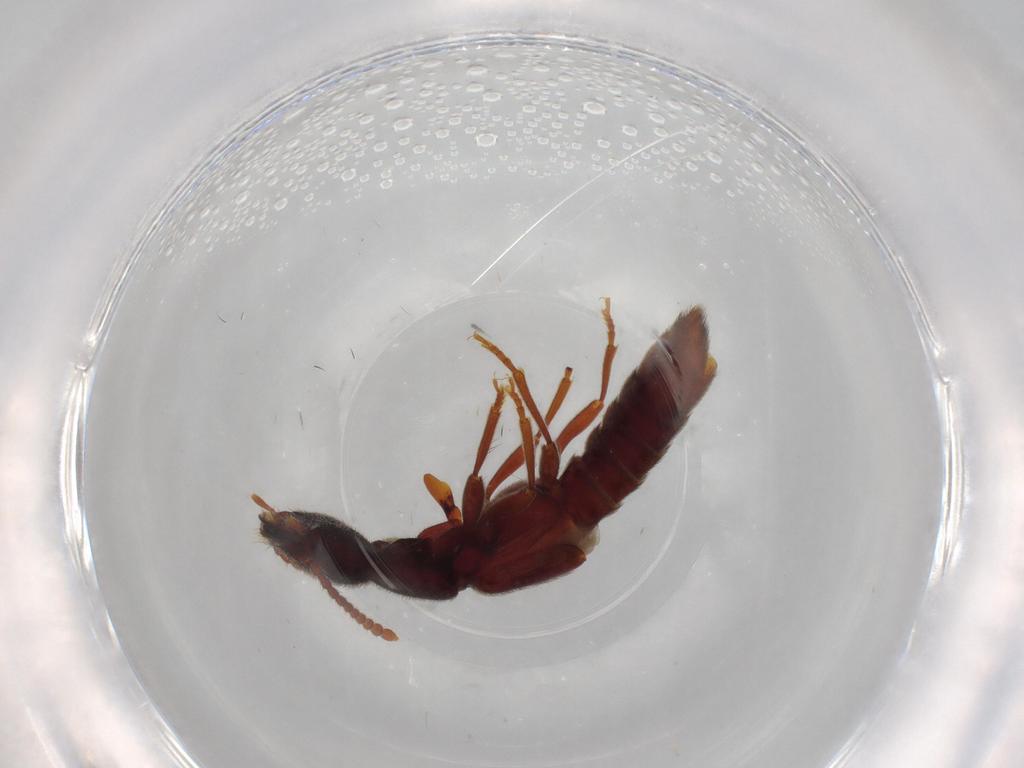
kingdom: Animalia
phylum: Arthropoda
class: Insecta
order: Coleoptera
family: Staphylinidae
